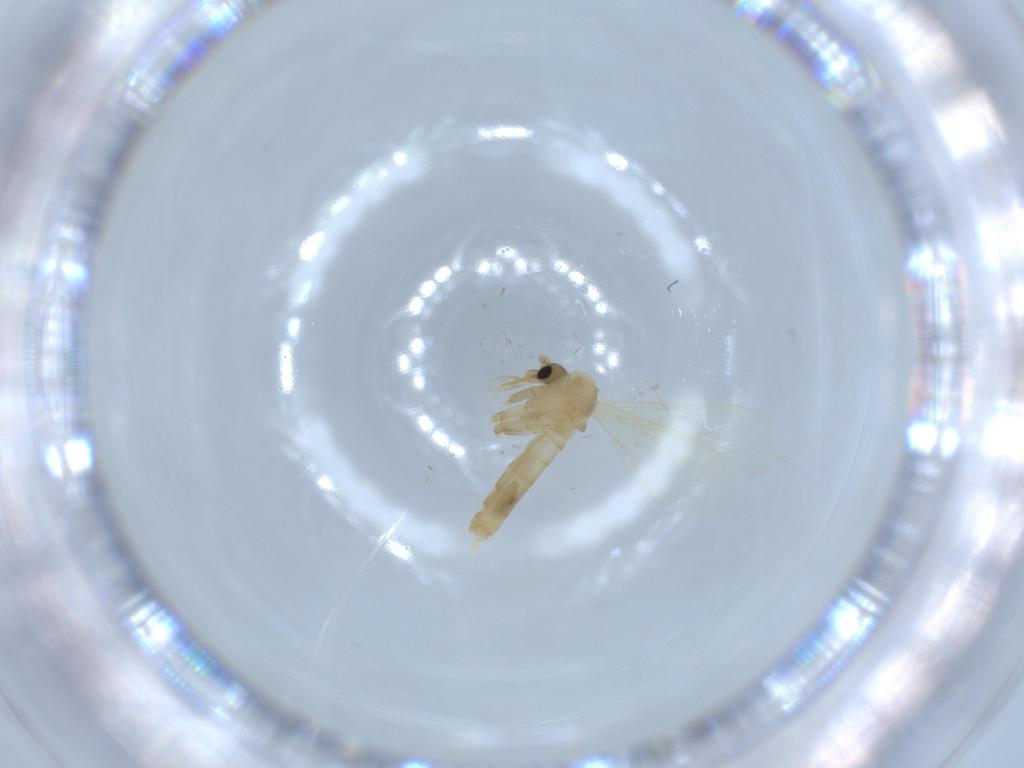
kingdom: Animalia
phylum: Arthropoda
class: Insecta
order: Diptera
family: Psychodidae
